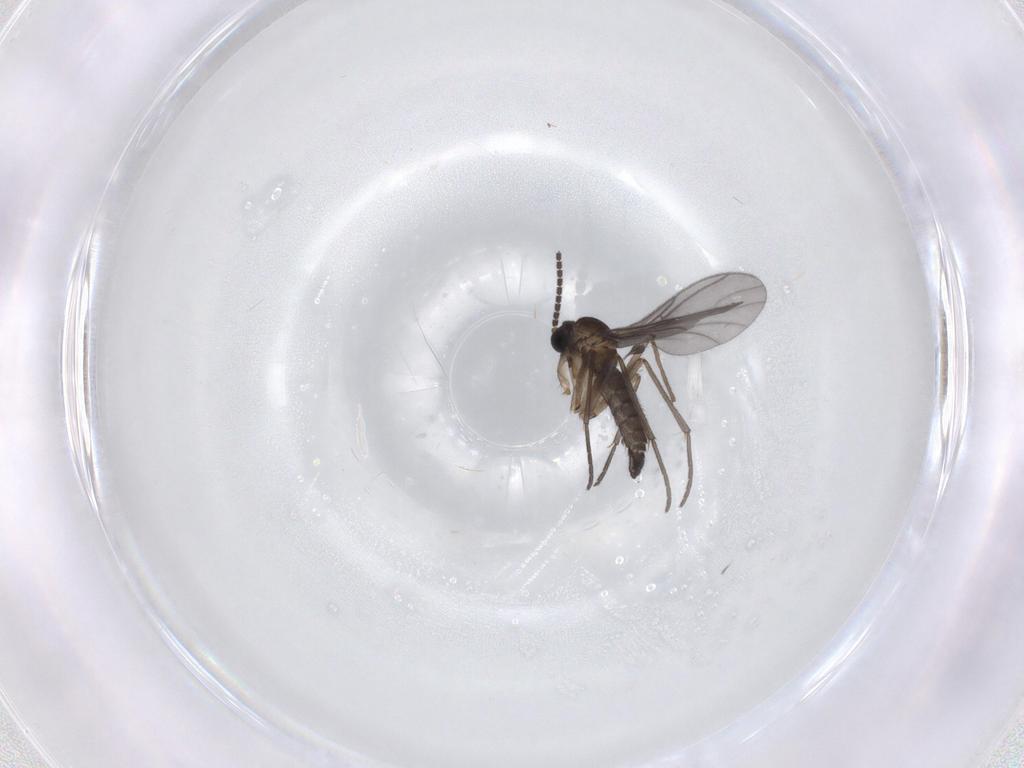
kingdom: Animalia
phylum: Arthropoda
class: Insecta
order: Diptera
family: Sciaridae
